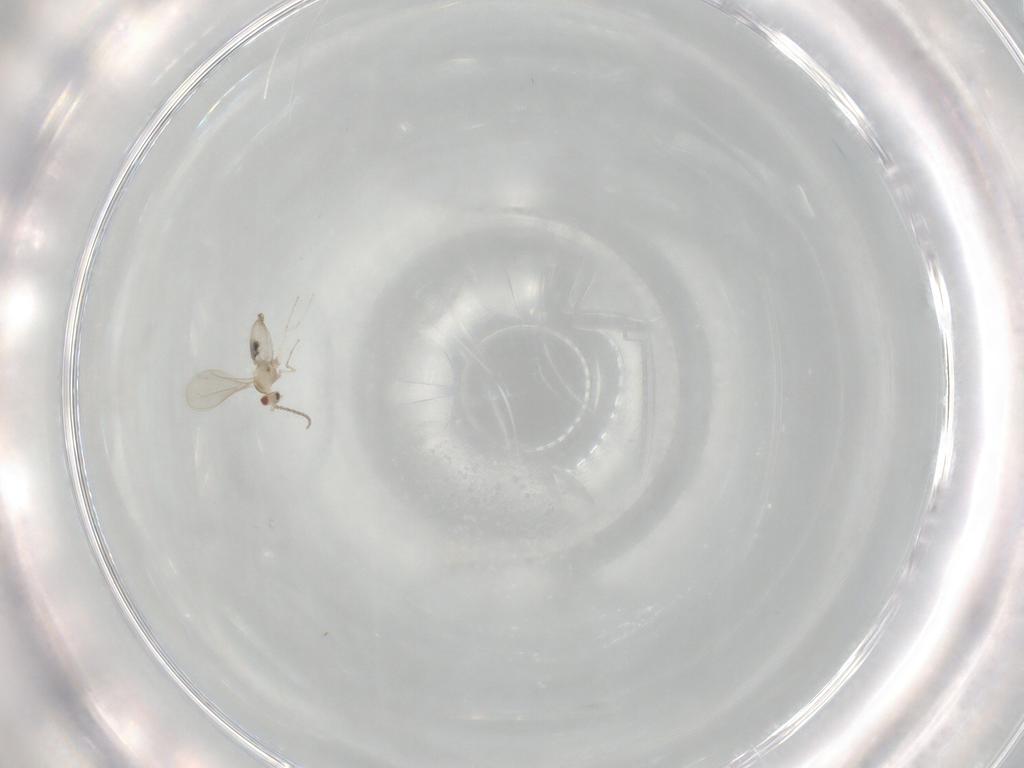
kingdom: Animalia
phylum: Arthropoda
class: Insecta
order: Diptera
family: Cecidomyiidae
